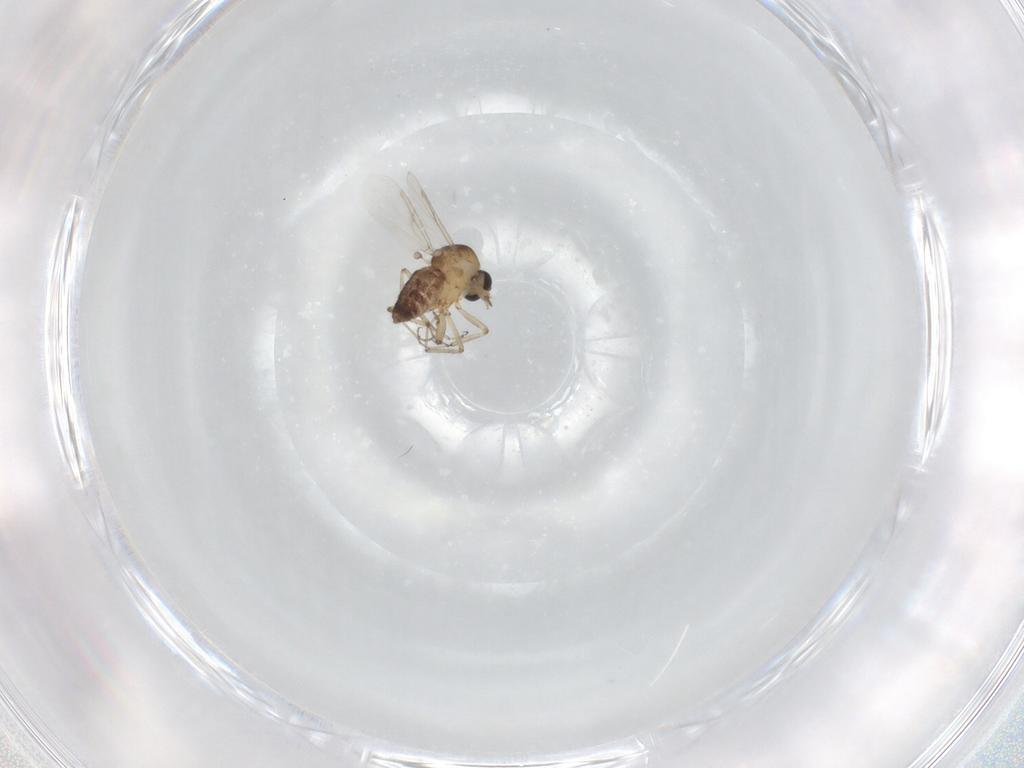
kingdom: Animalia
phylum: Arthropoda
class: Insecta
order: Diptera
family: Ceratopogonidae
